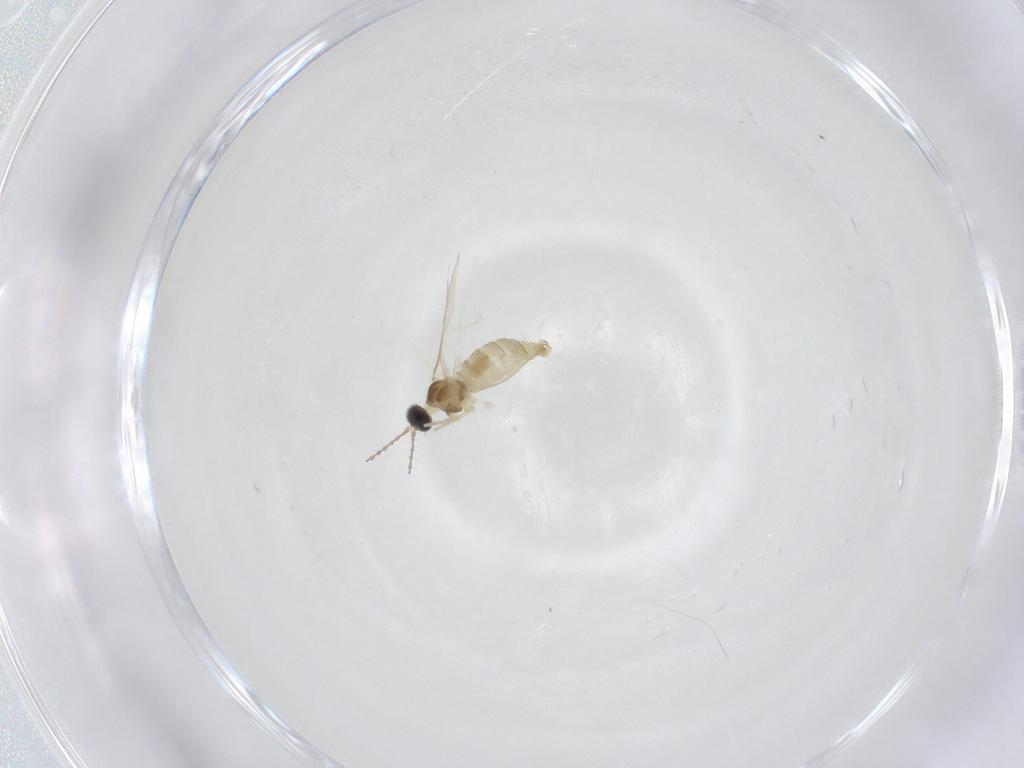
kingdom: Animalia
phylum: Arthropoda
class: Insecta
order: Diptera
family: Cecidomyiidae
